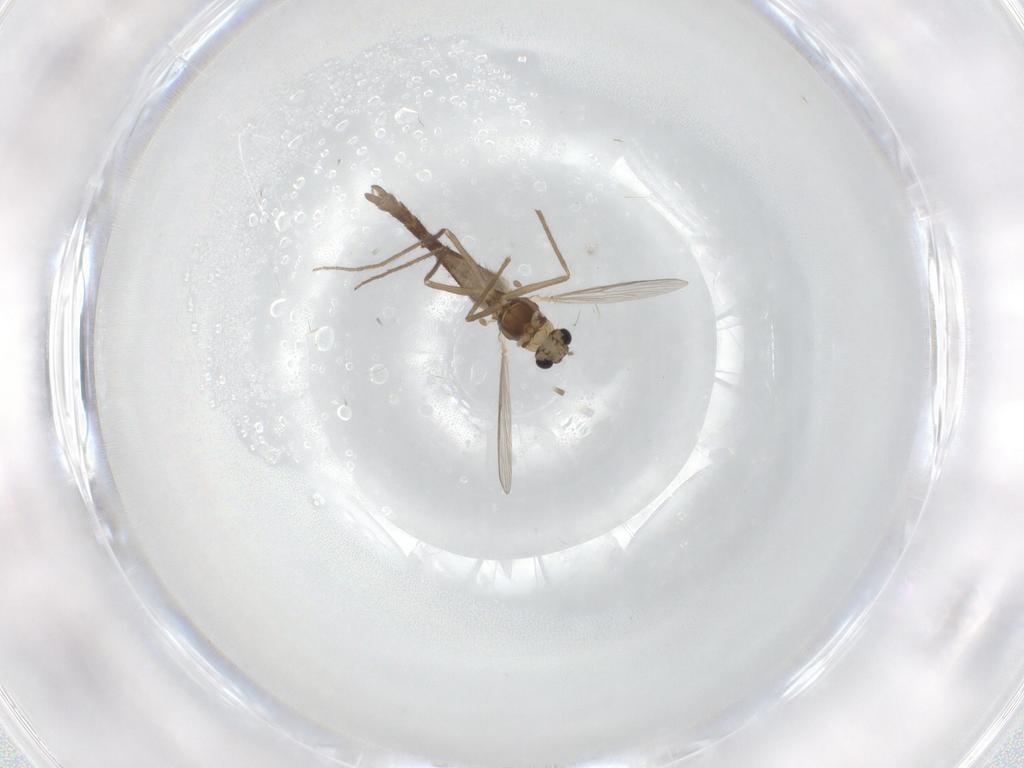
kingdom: Animalia
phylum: Arthropoda
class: Insecta
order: Diptera
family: Chironomidae
